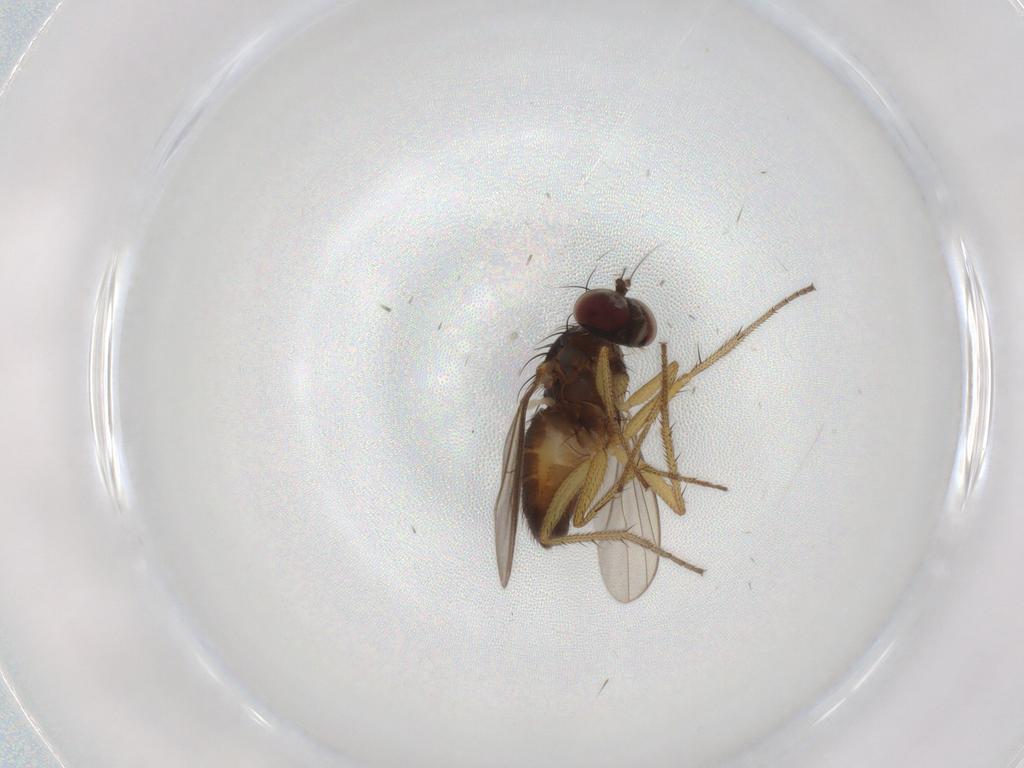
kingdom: Animalia
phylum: Arthropoda
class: Insecta
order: Diptera
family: Dolichopodidae
